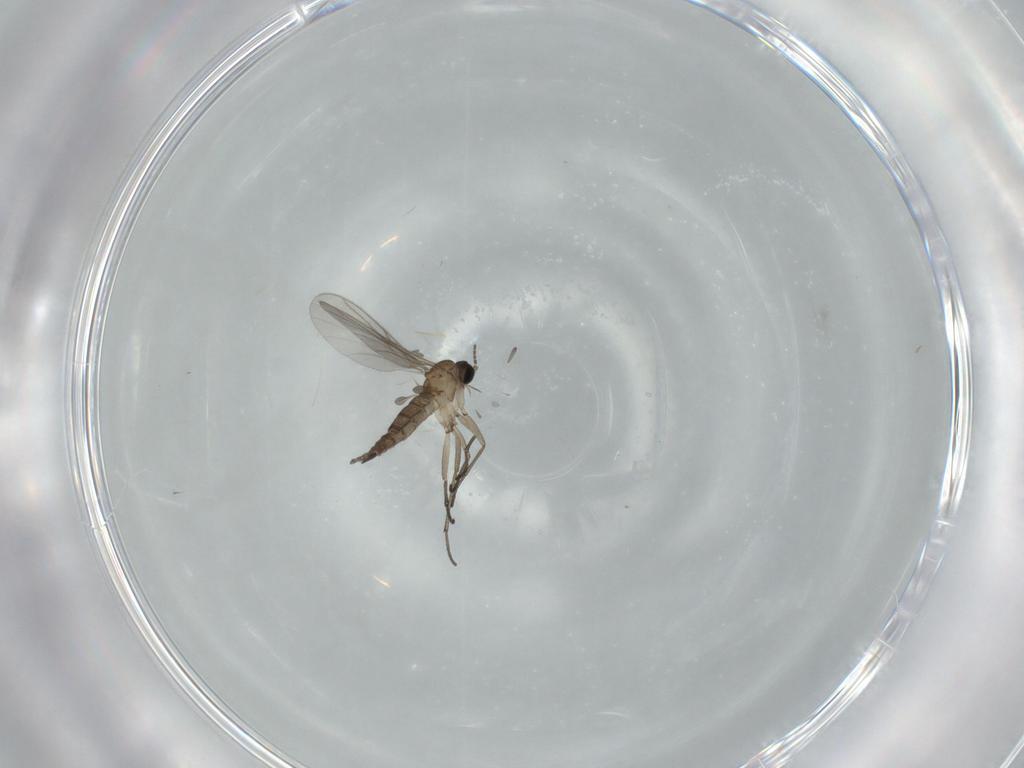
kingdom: Animalia
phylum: Arthropoda
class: Insecta
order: Diptera
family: Sciaridae
